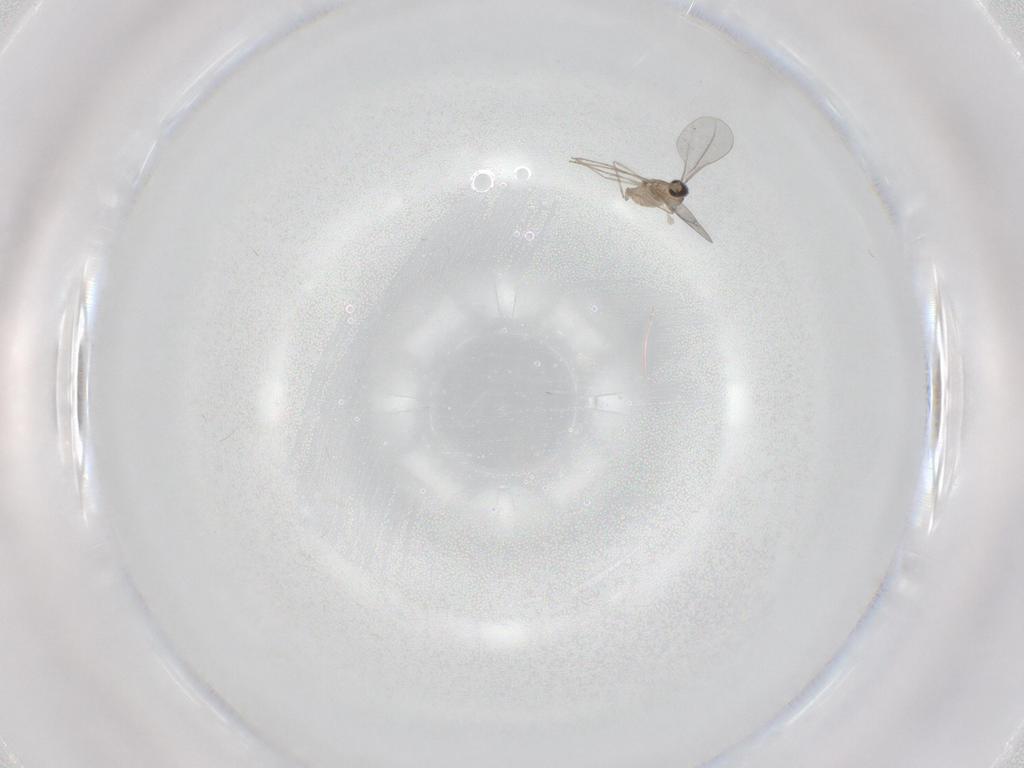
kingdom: Animalia
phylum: Arthropoda
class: Insecta
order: Diptera
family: Cecidomyiidae
